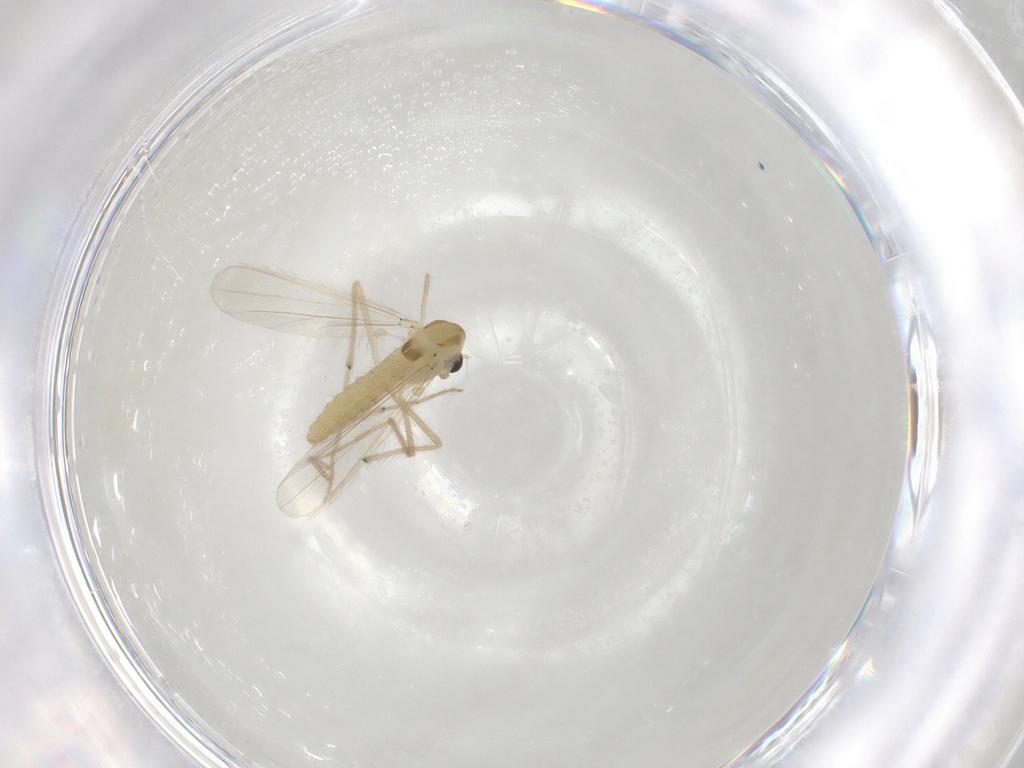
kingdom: Animalia
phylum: Arthropoda
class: Insecta
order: Diptera
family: Chironomidae
